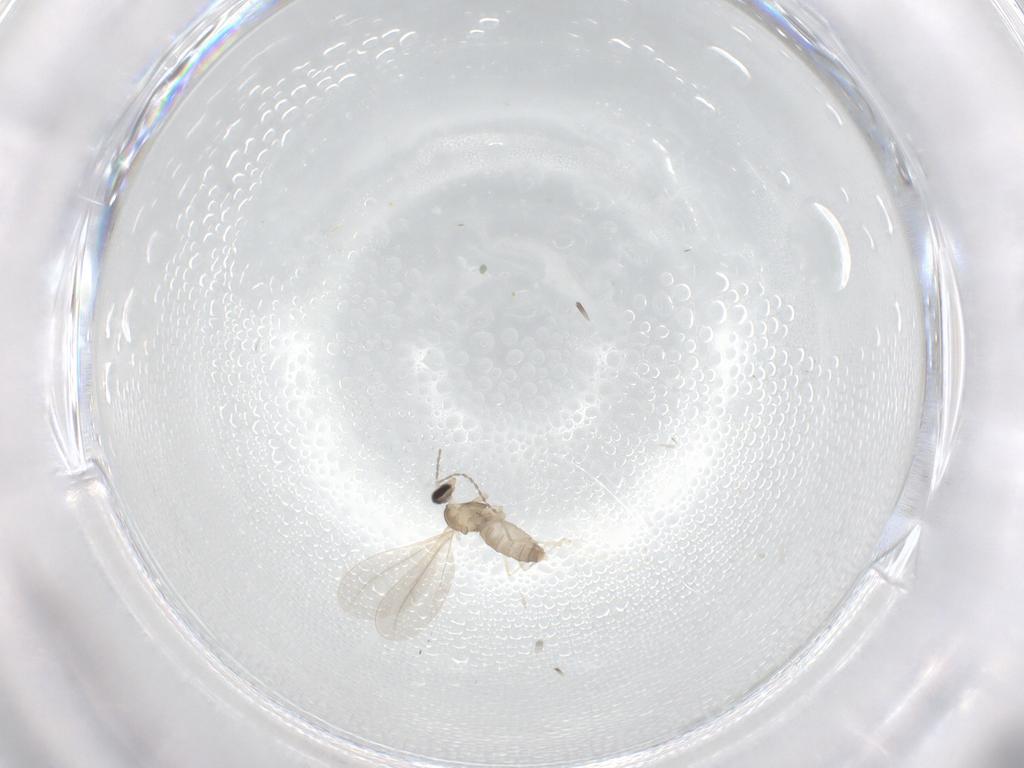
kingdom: Animalia
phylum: Arthropoda
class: Insecta
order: Diptera
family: Cecidomyiidae
